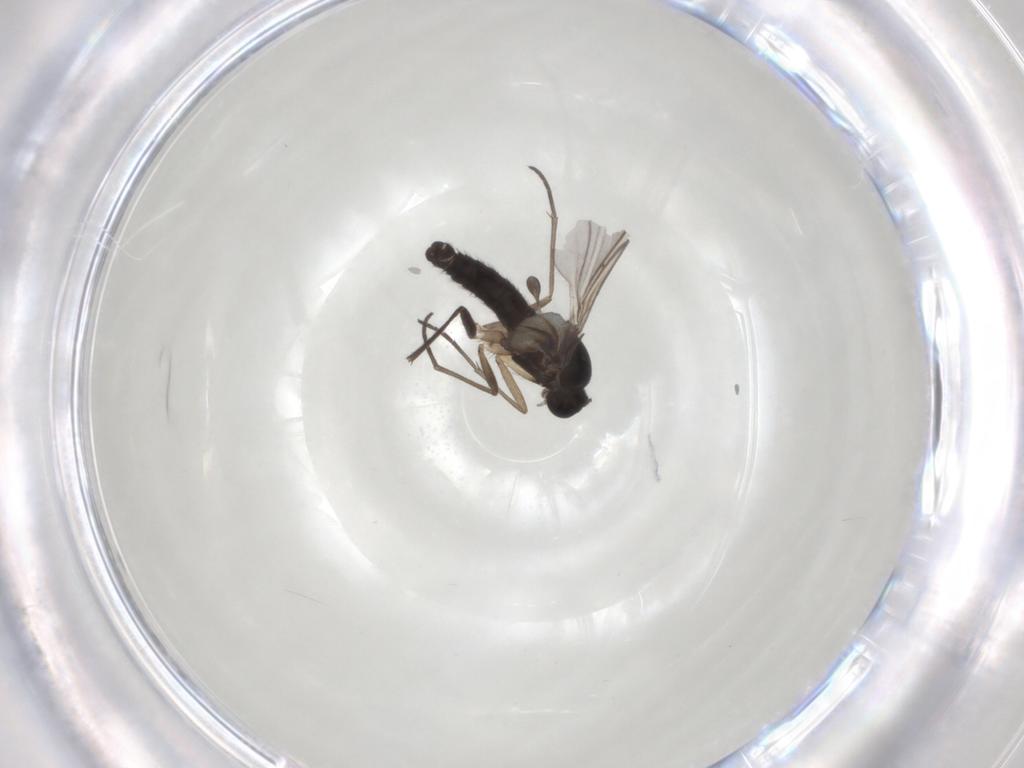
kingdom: Animalia
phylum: Arthropoda
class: Insecta
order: Diptera
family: Sciaridae
